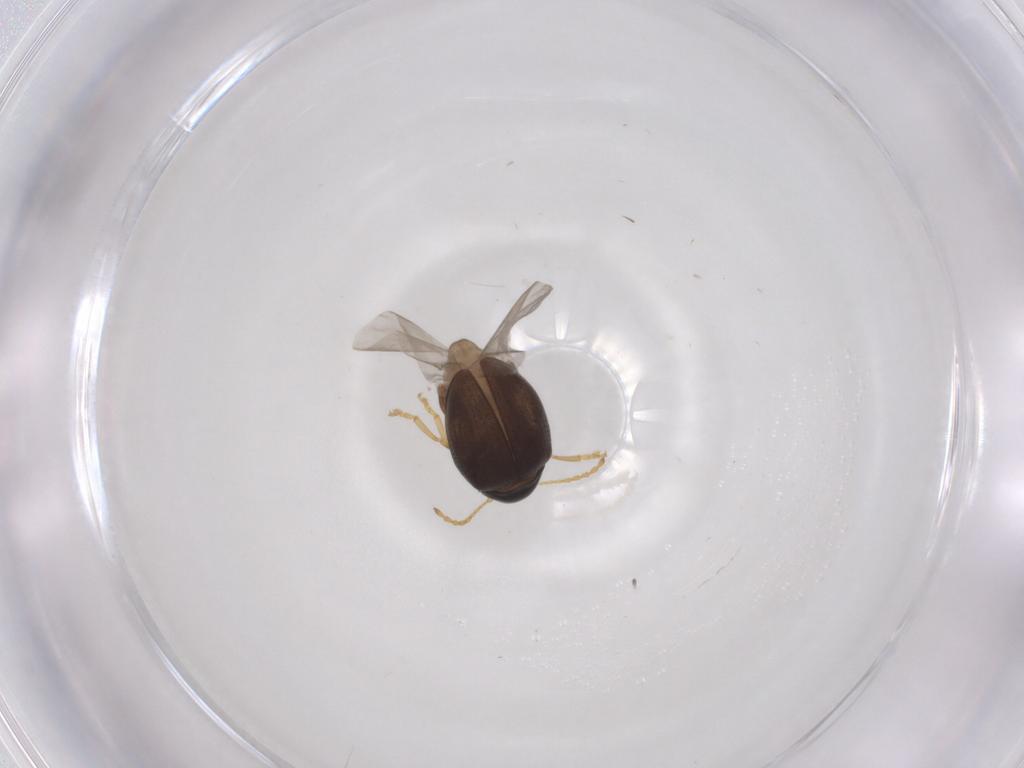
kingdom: Animalia
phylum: Arthropoda
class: Insecta
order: Coleoptera
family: Chrysomelidae
